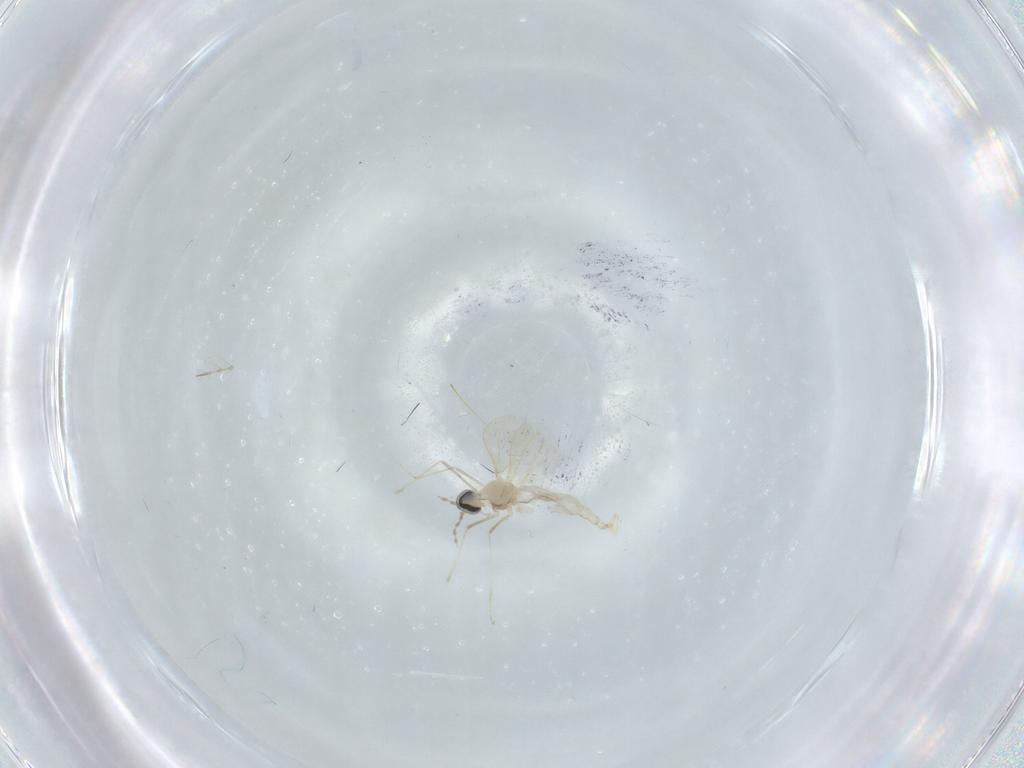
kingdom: Animalia
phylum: Arthropoda
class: Insecta
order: Diptera
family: Cecidomyiidae
